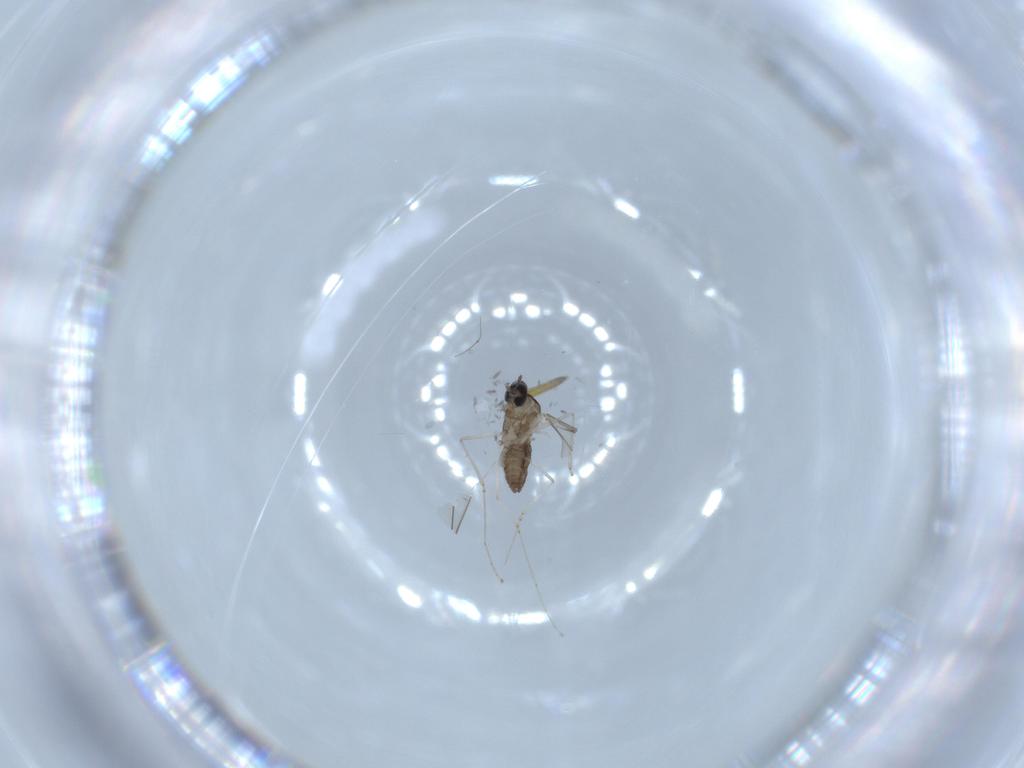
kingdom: Animalia
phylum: Arthropoda
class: Insecta
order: Diptera
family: Cecidomyiidae
